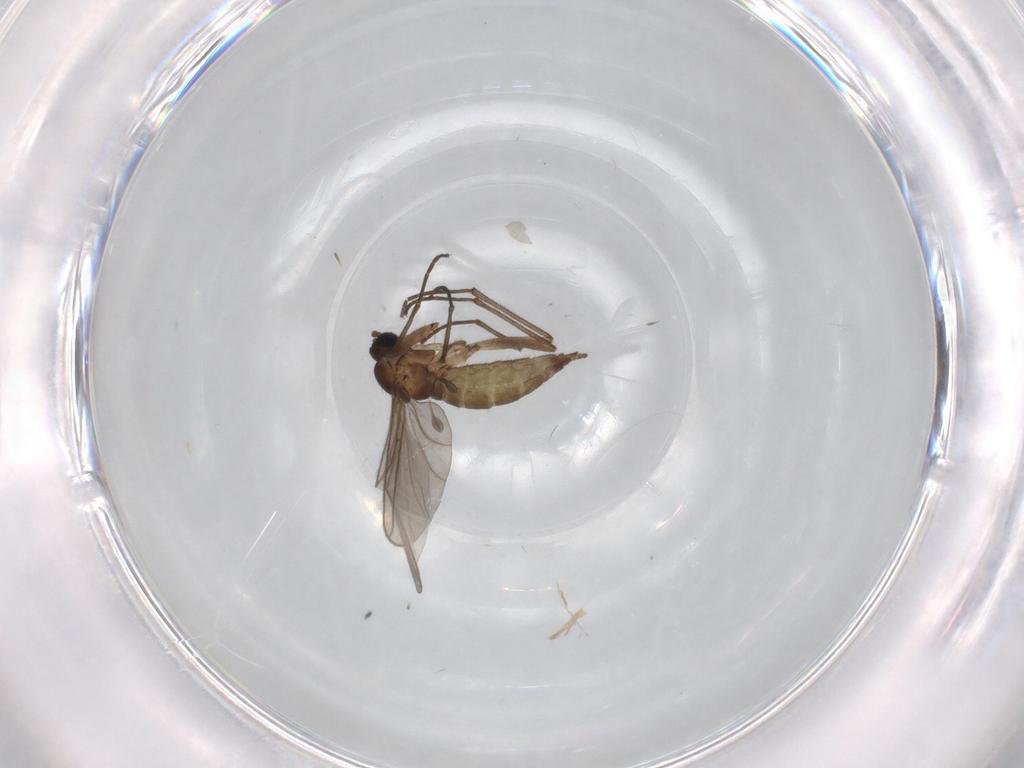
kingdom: Animalia
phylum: Arthropoda
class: Insecta
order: Diptera
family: Sciaridae
